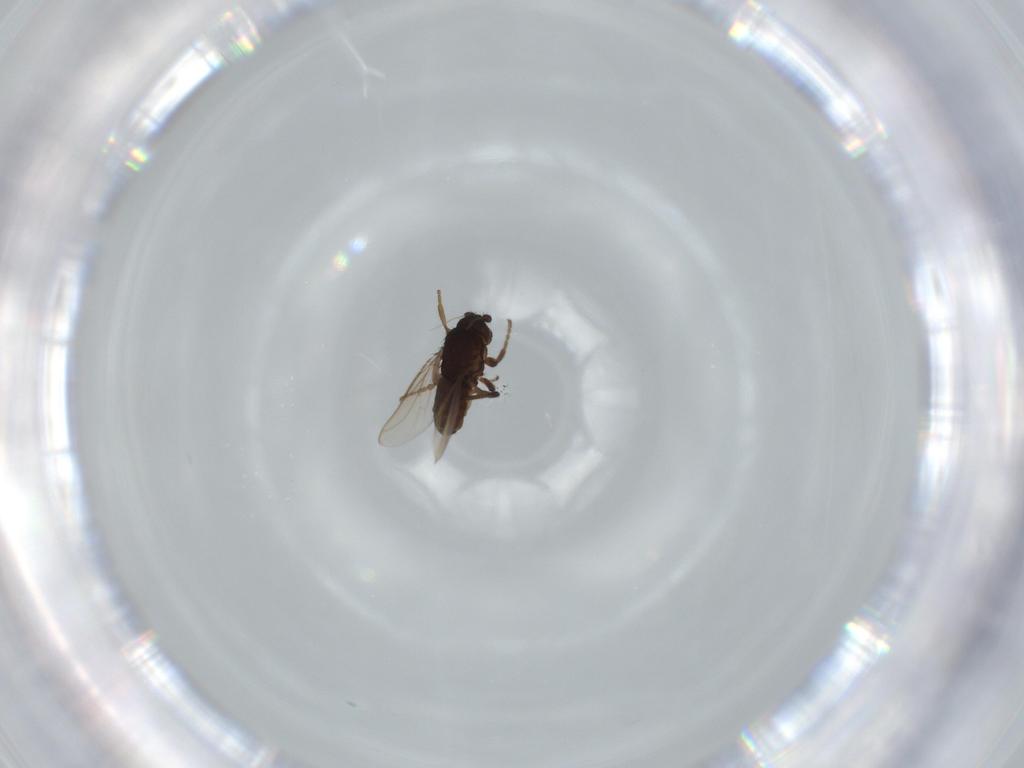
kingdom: Animalia
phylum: Arthropoda
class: Insecta
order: Diptera
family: Sphaeroceridae
